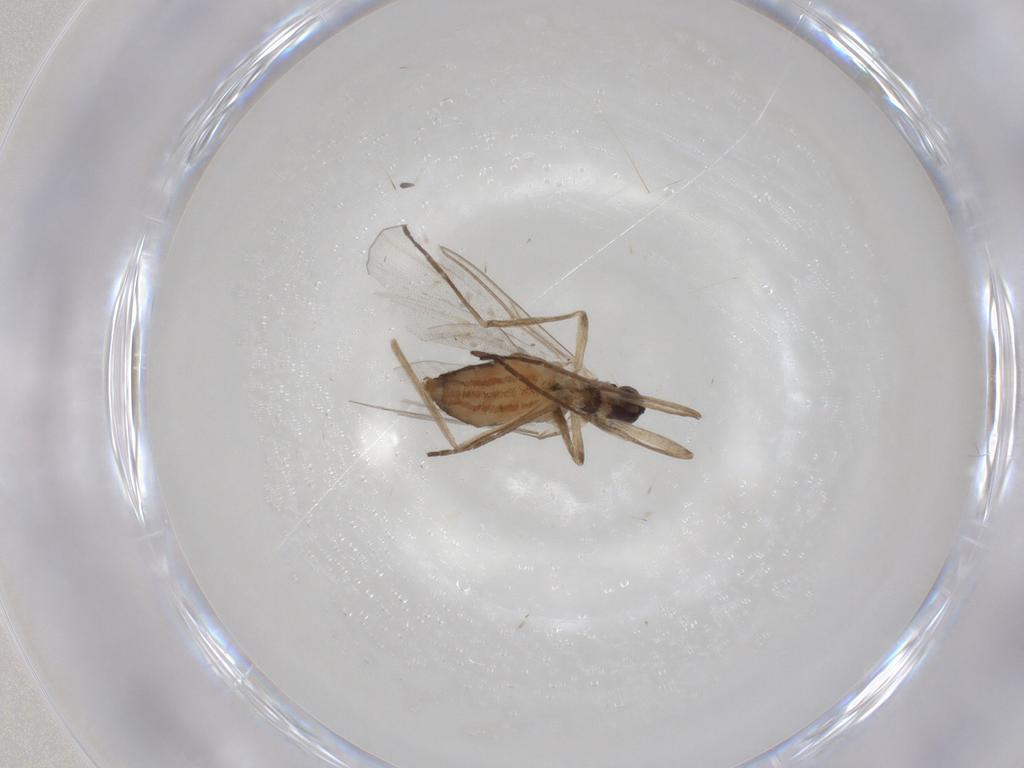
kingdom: Animalia
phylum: Arthropoda
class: Insecta
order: Diptera
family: Cecidomyiidae
